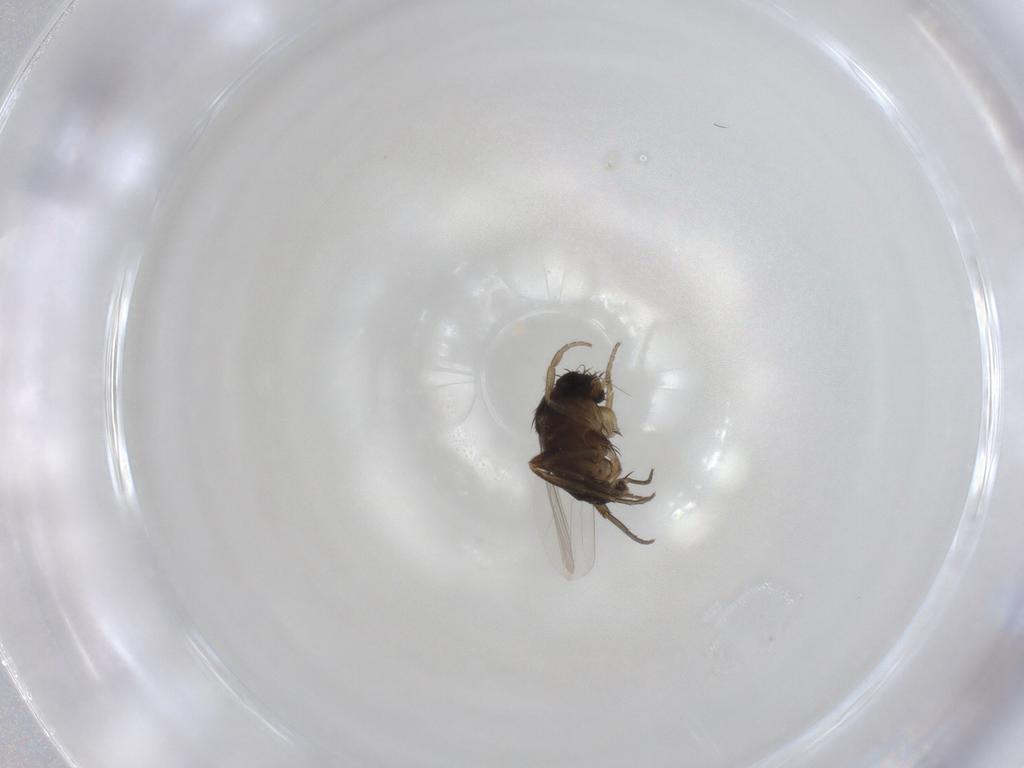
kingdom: Animalia
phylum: Arthropoda
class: Insecta
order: Diptera
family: Phoridae
